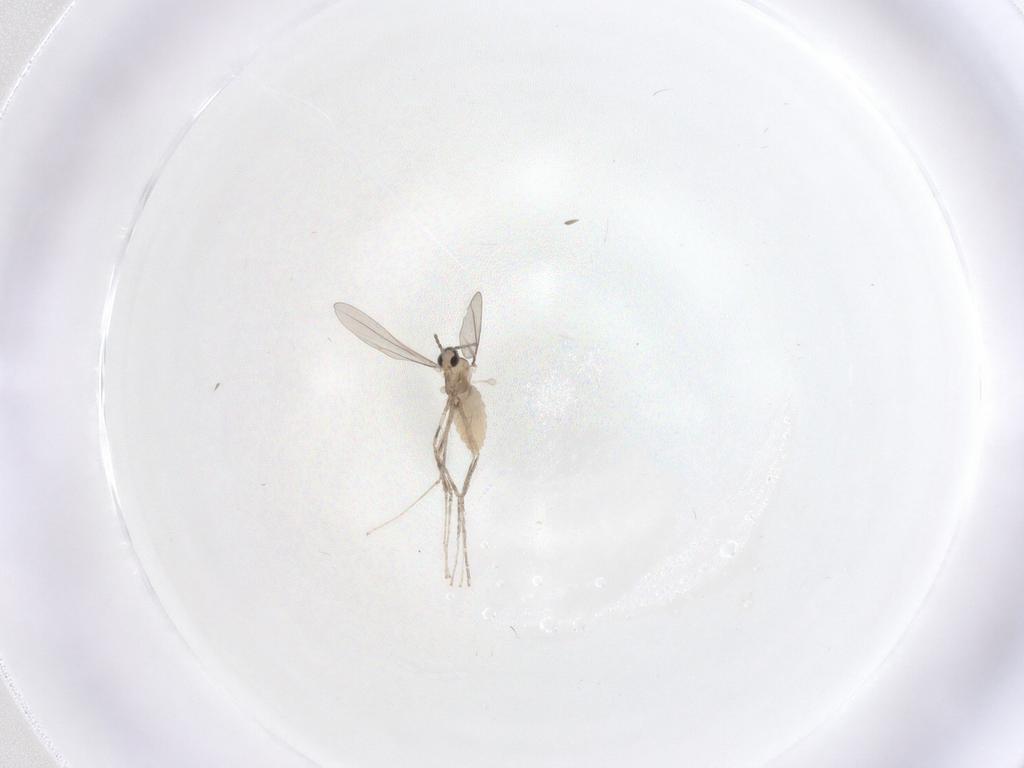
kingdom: Animalia
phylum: Arthropoda
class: Insecta
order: Diptera
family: Cecidomyiidae
